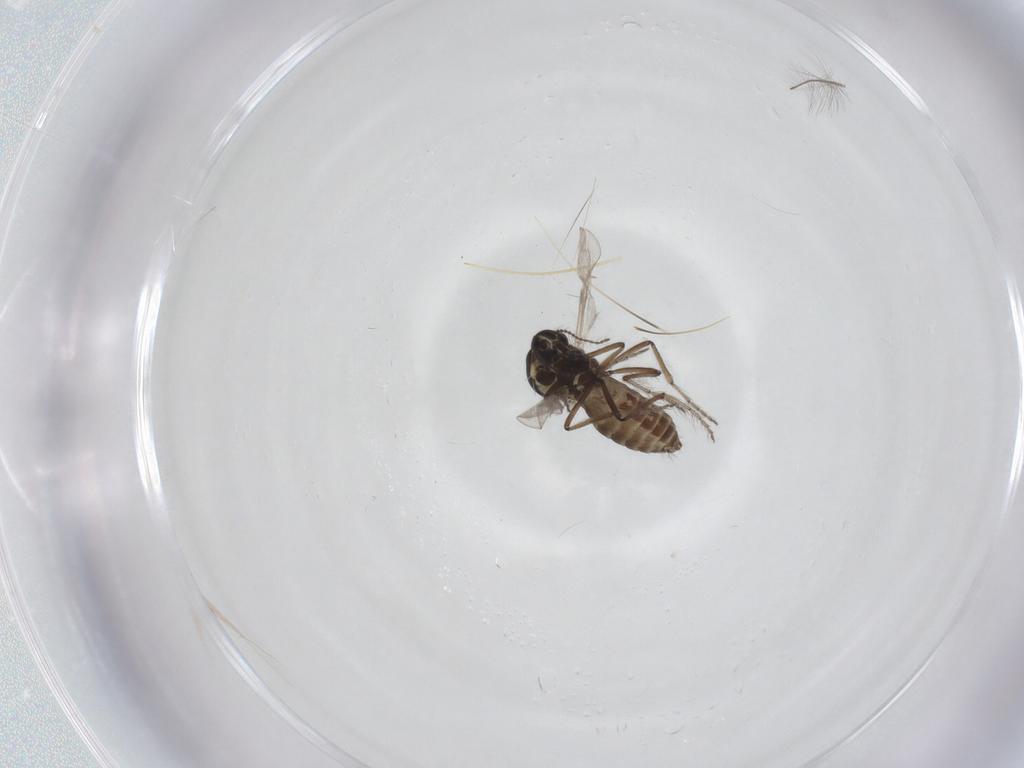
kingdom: Animalia
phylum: Arthropoda
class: Insecta
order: Diptera
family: Ceratopogonidae
